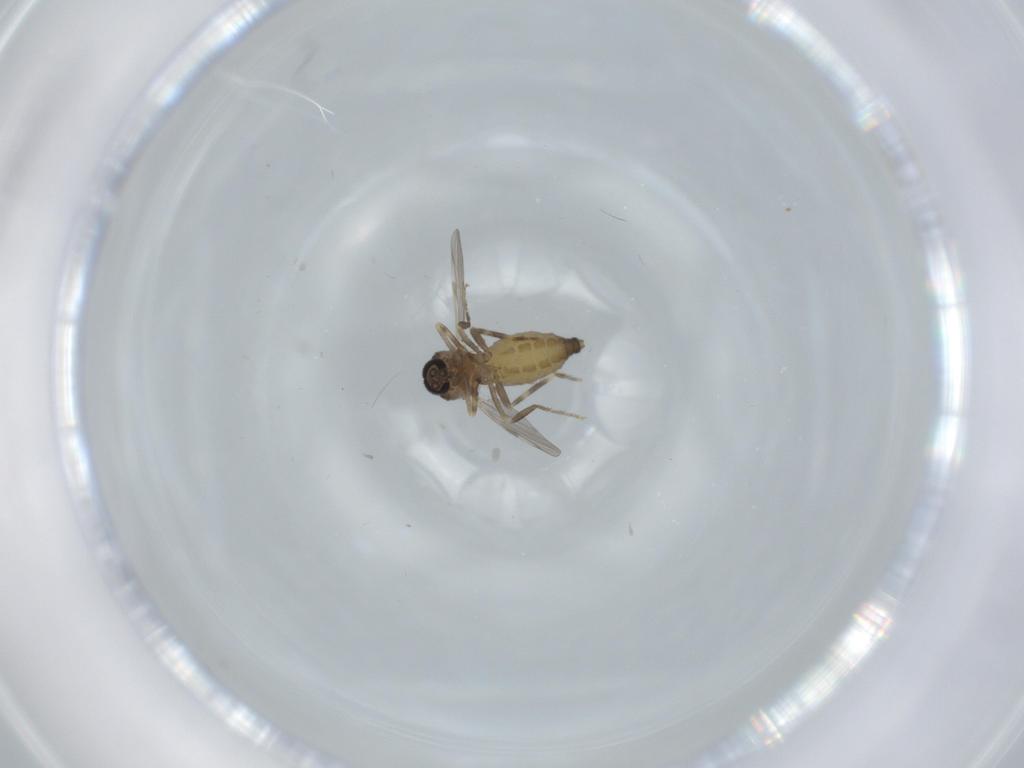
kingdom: Animalia
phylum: Arthropoda
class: Insecta
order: Diptera
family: Ceratopogonidae
